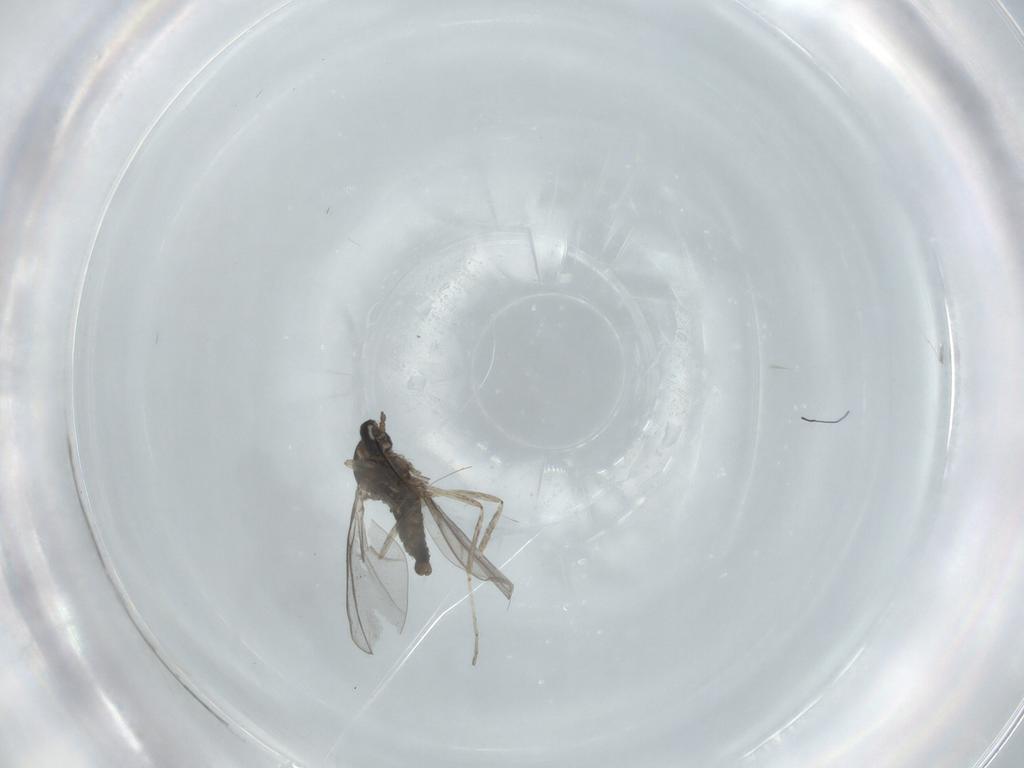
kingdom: Animalia
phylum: Arthropoda
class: Insecta
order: Diptera
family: Cecidomyiidae
